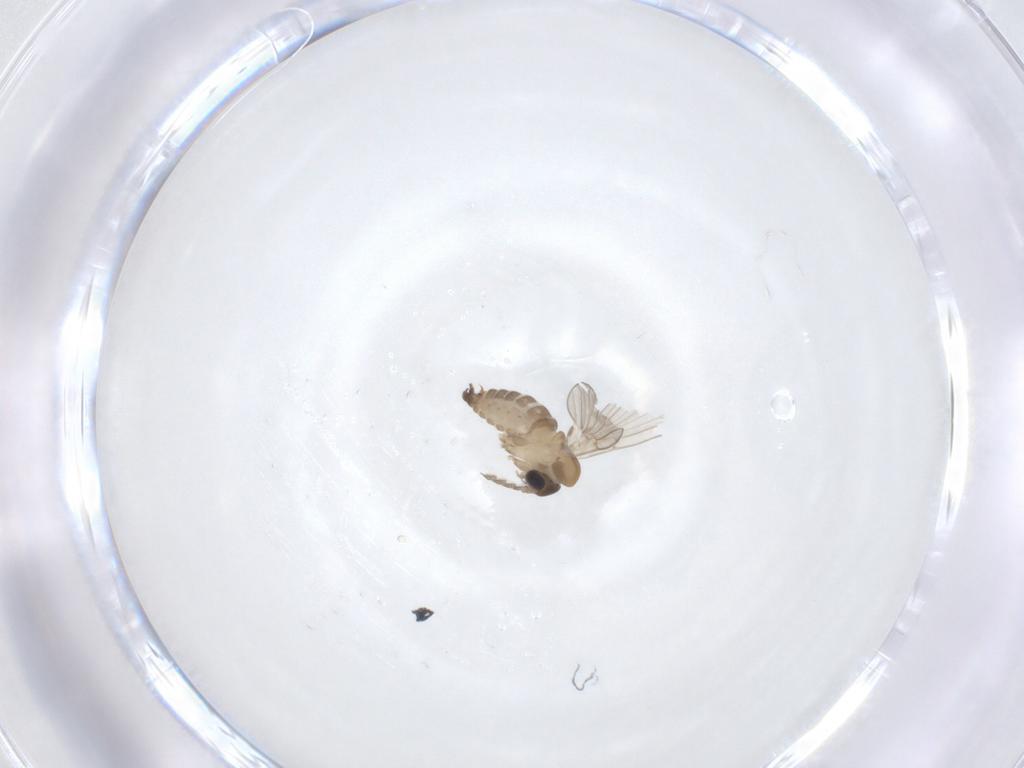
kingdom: Animalia
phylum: Arthropoda
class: Insecta
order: Diptera
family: Psychodidae
